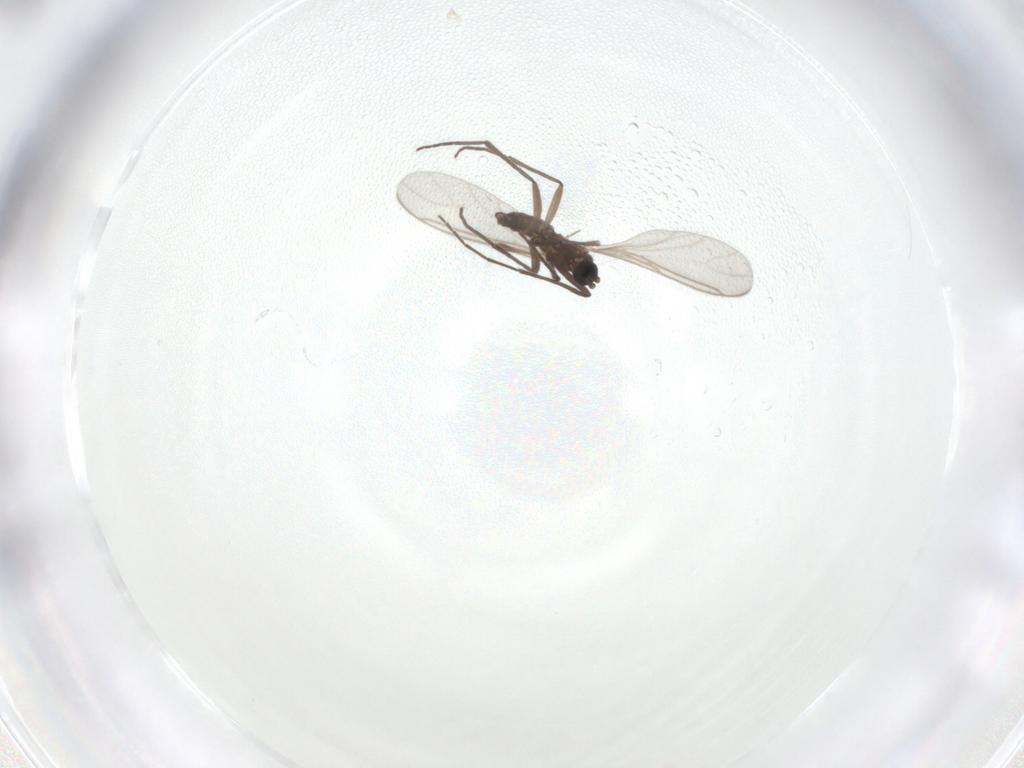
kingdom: Animalia
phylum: Arthropoda
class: Insecta
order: Diptera
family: Sciaridae
